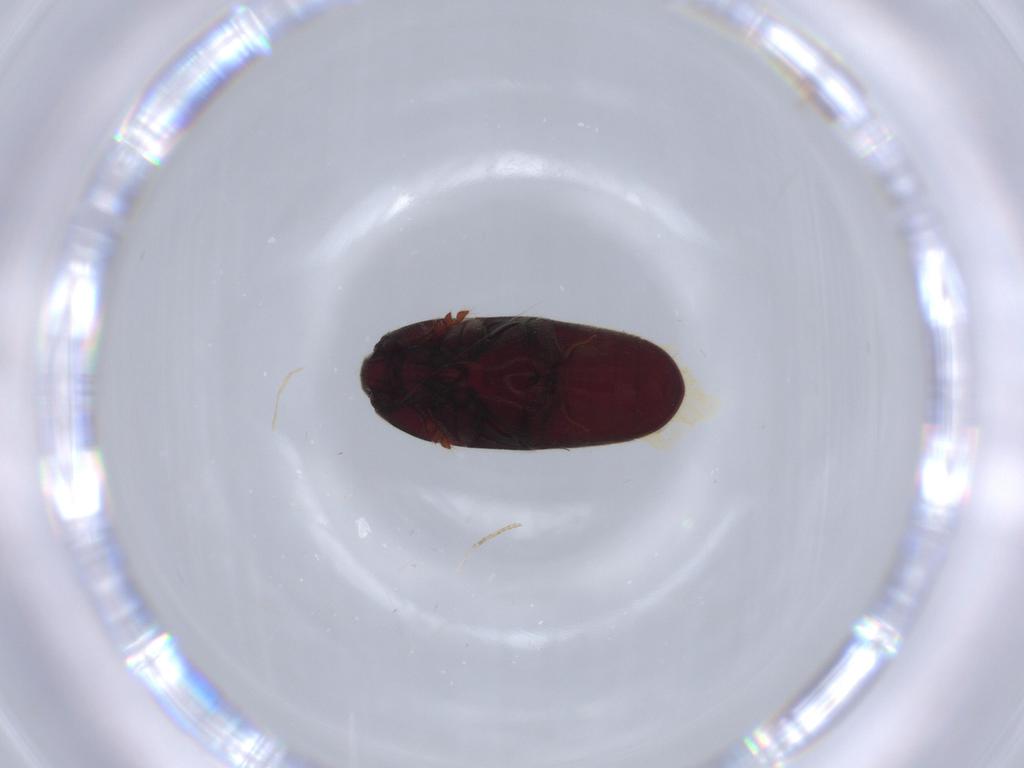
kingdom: Animalia
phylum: Arthropoda
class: Insecta
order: Coleoptera
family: Throscidae
